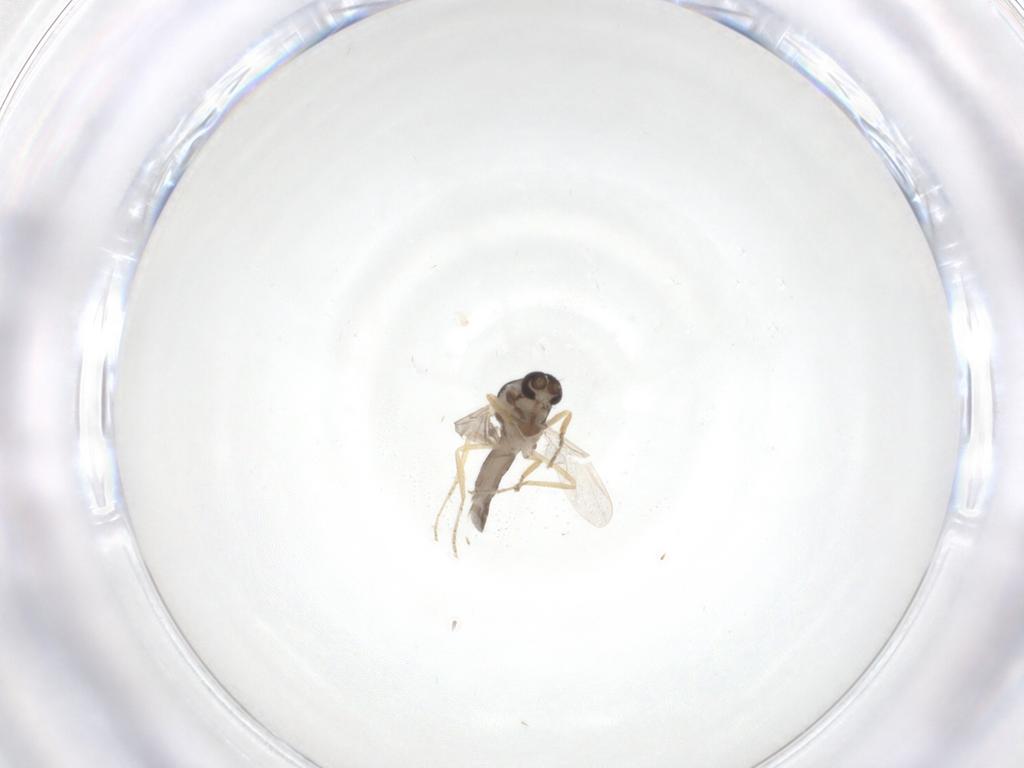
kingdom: Animalia
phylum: Arthropoda
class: Insecta
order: Diptera
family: Ceratopogonidae
